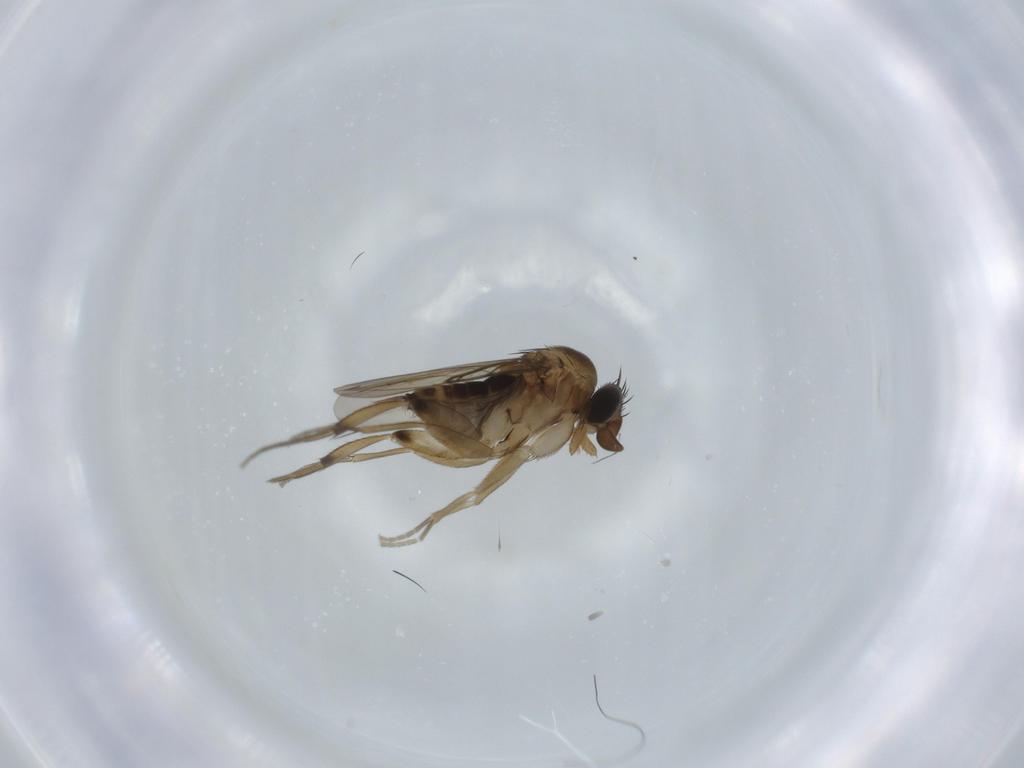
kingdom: Animalia
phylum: Arthropoda
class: Insecta
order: Diptera
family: Phoridae
